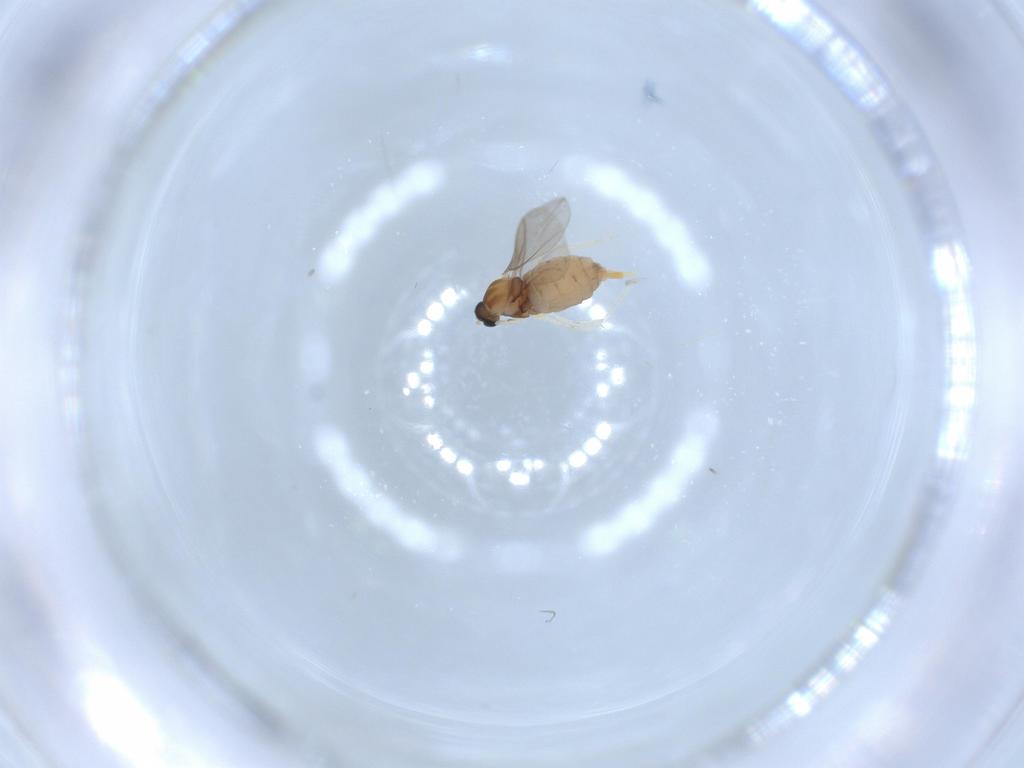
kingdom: Animalia
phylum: Arthropoda
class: Insecta
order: Diptera
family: Cecidomyiidae
